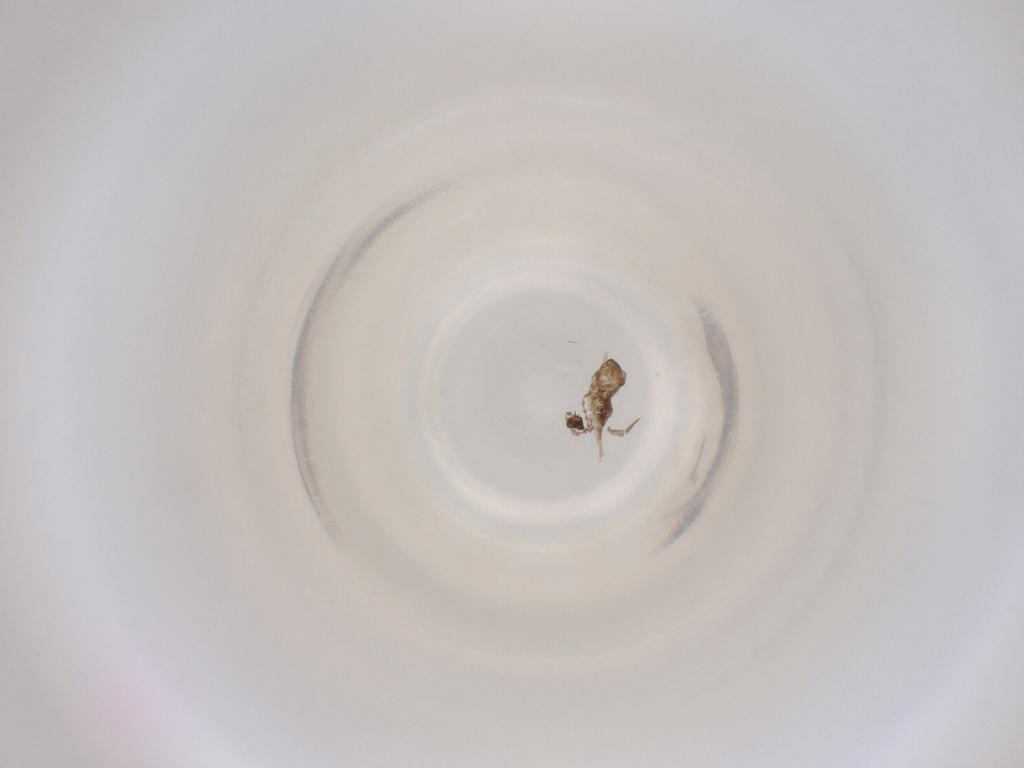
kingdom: Animalia
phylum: Arthropoda
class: Insecta
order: Diptera
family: Cecidomyiidae
